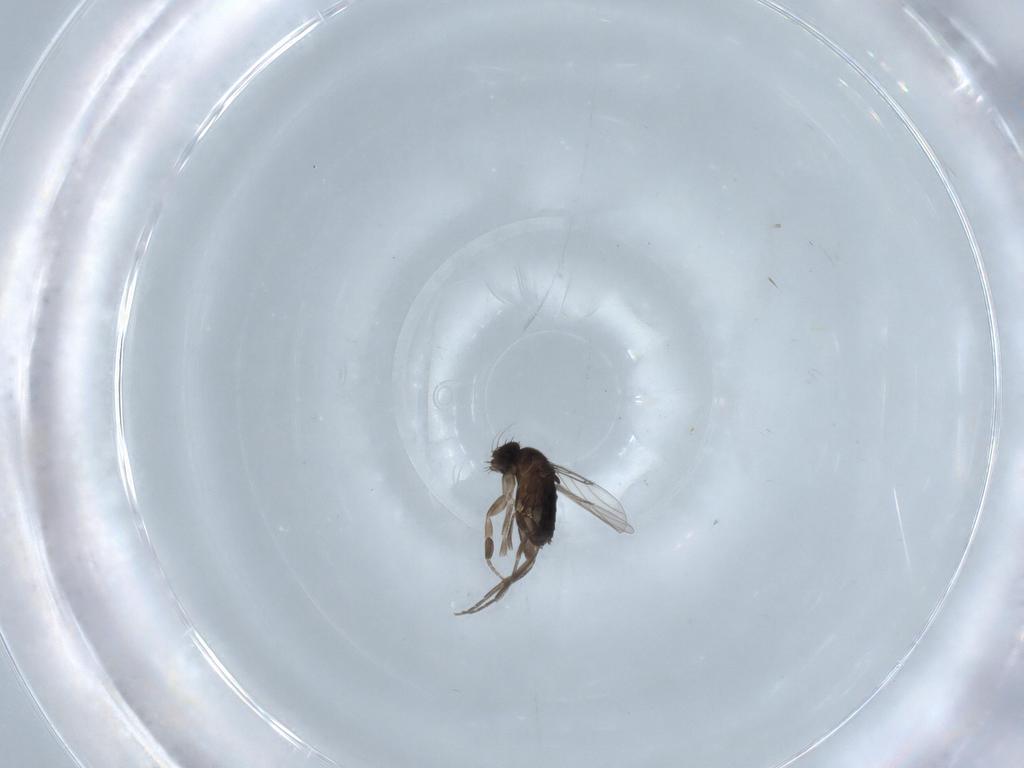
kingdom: Animalia
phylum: Arthropoda
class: Insecta
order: Diptera
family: Phoridae
